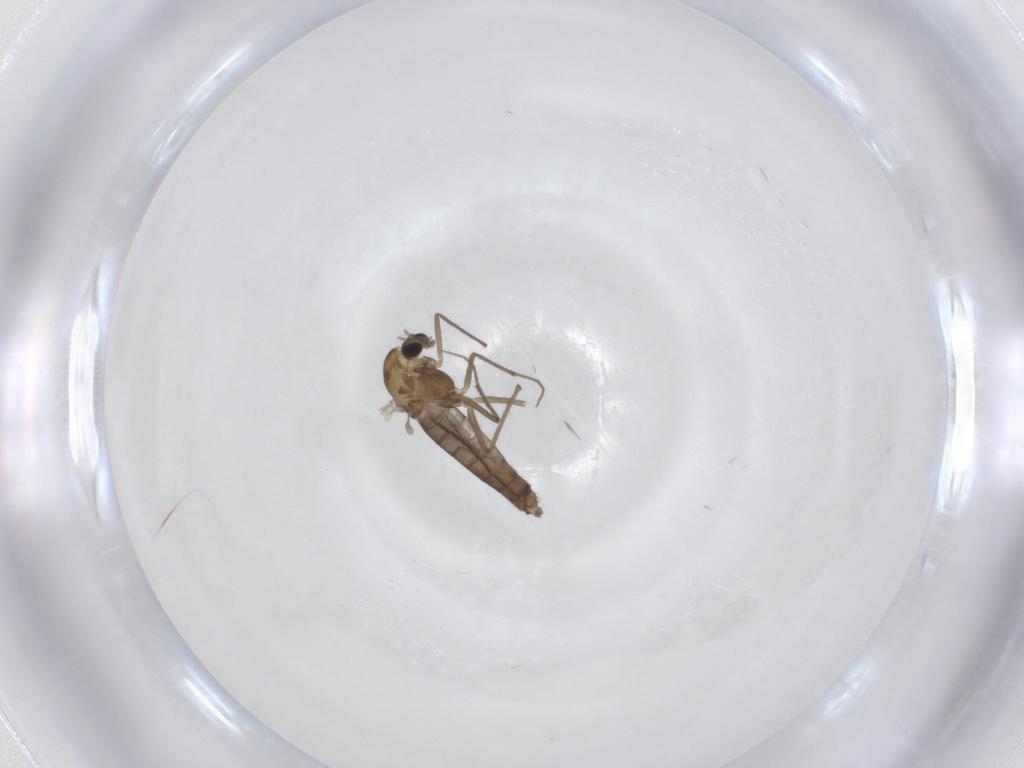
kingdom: Animalia
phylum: Arthropoda
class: Insecta
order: Diptera
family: Chironomidae
